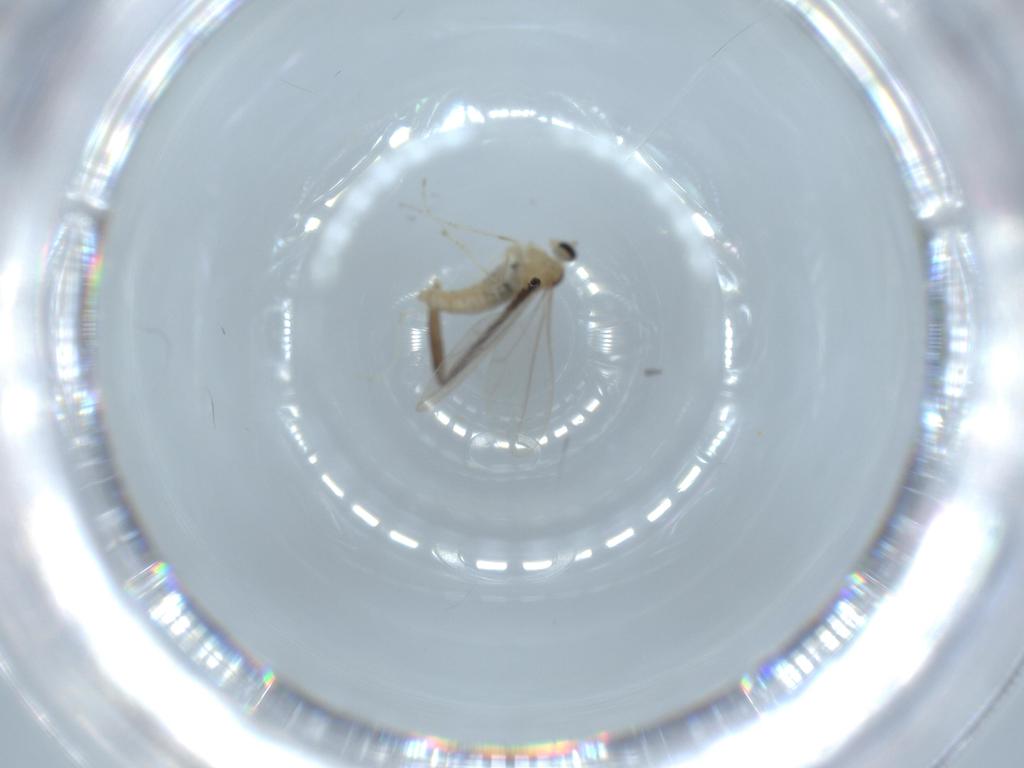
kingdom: Animalia
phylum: Arthropoda
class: Insecta
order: Diptera
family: Cecidomyiidae
